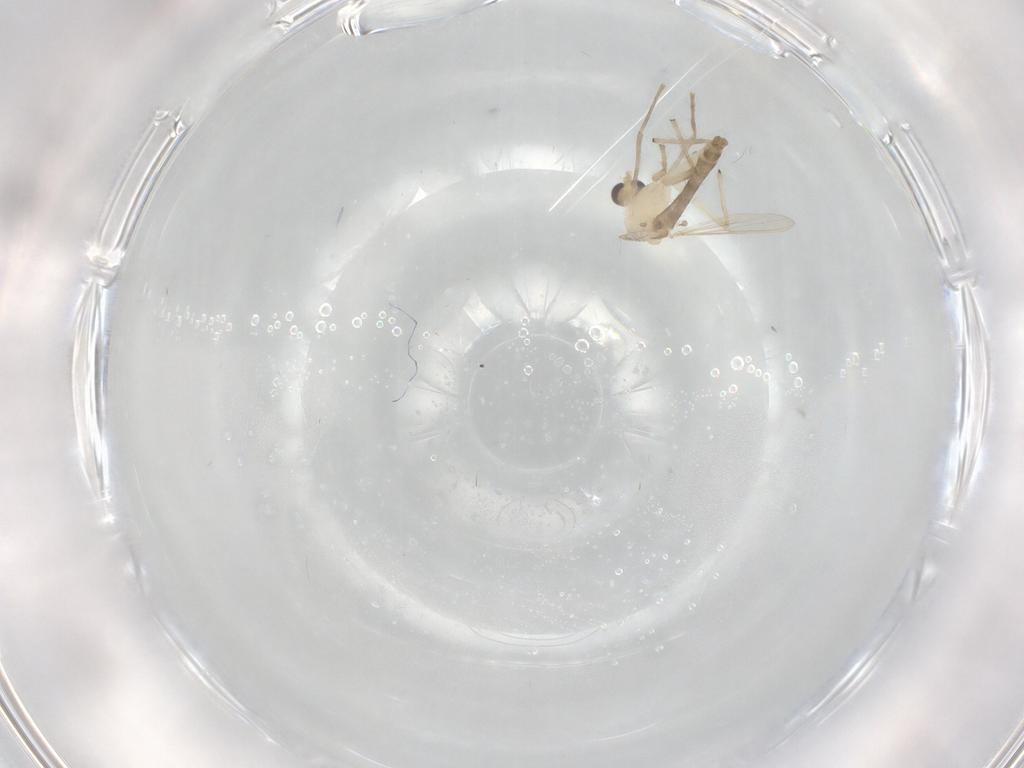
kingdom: Animalia
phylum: Arthropoda
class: Insecta
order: Diptera
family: Chironomidae
